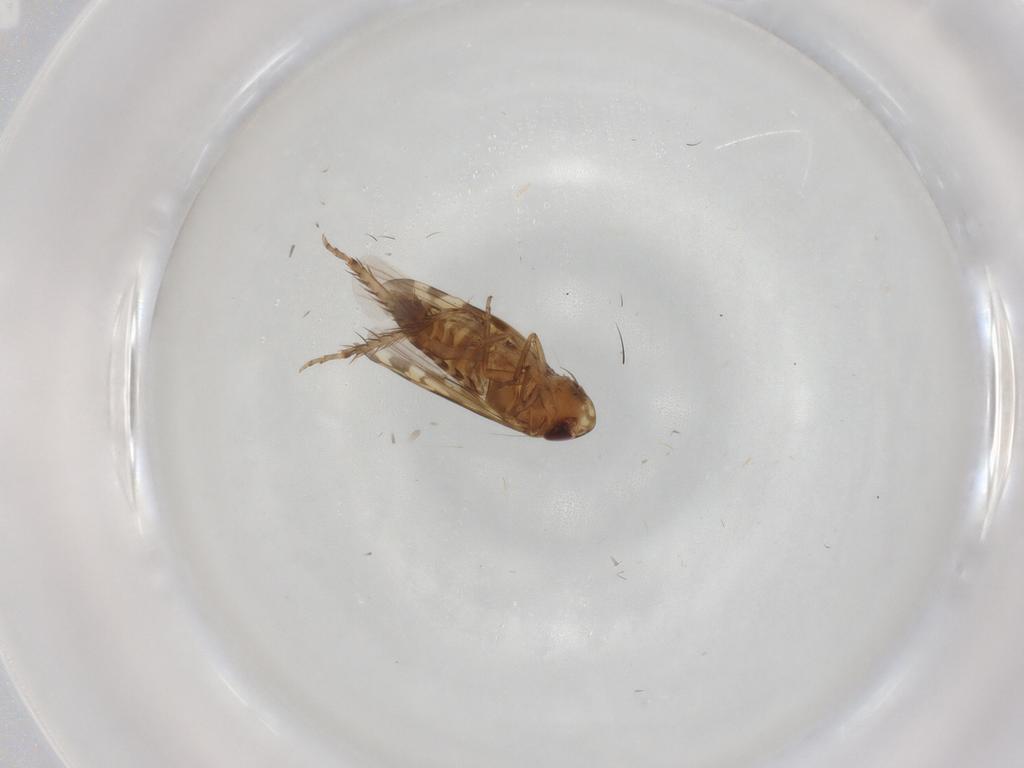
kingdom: Animalia
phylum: Arthropoda
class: Insecta
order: Hemiptera
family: Cicadellidae
